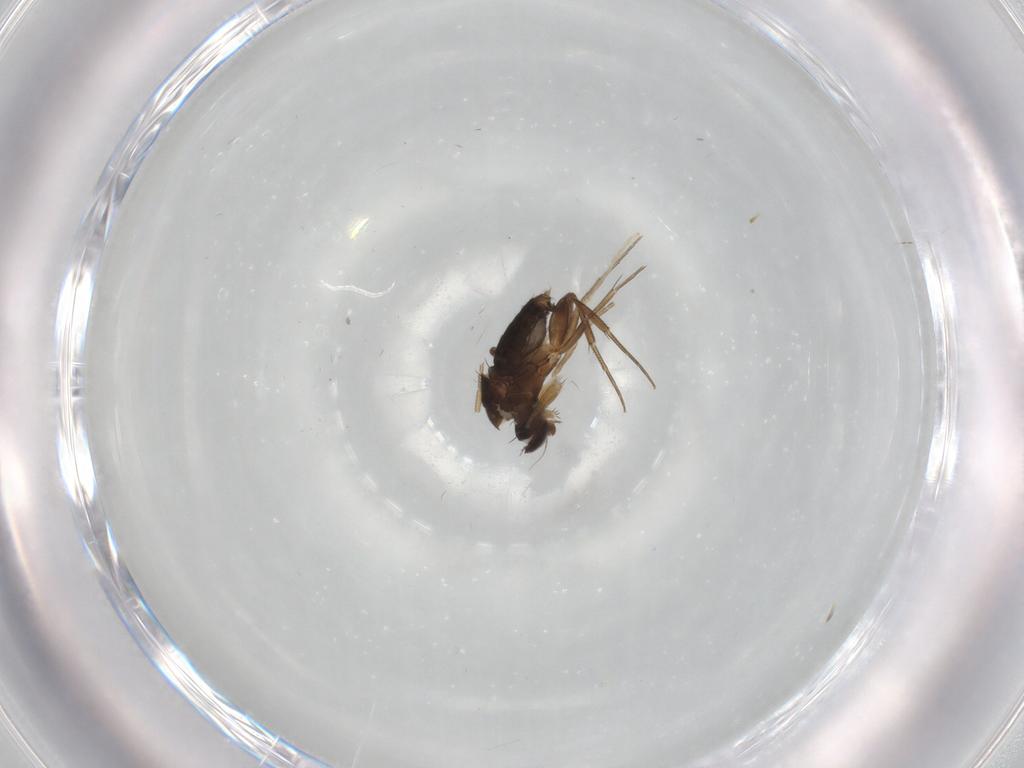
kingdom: Animalia
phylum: Arthropoda
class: Insecta
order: Diptera
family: Phoridae
